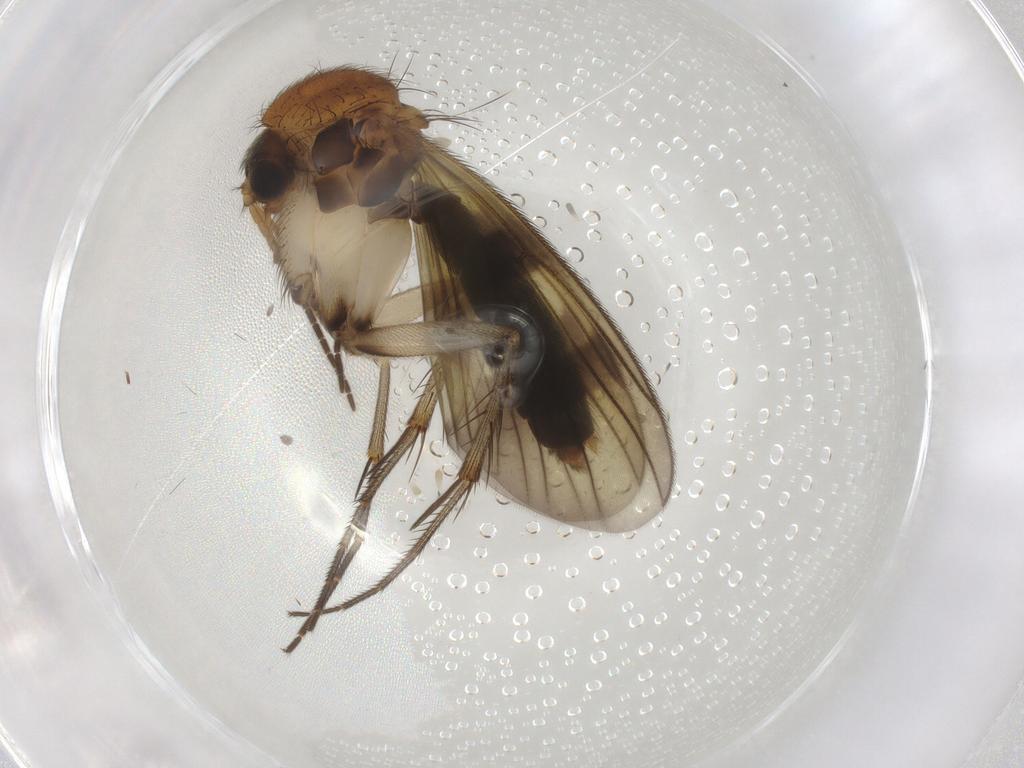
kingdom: Animalia
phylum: Arthropoda
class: Insecta
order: Diptera
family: Mycetophilidae
